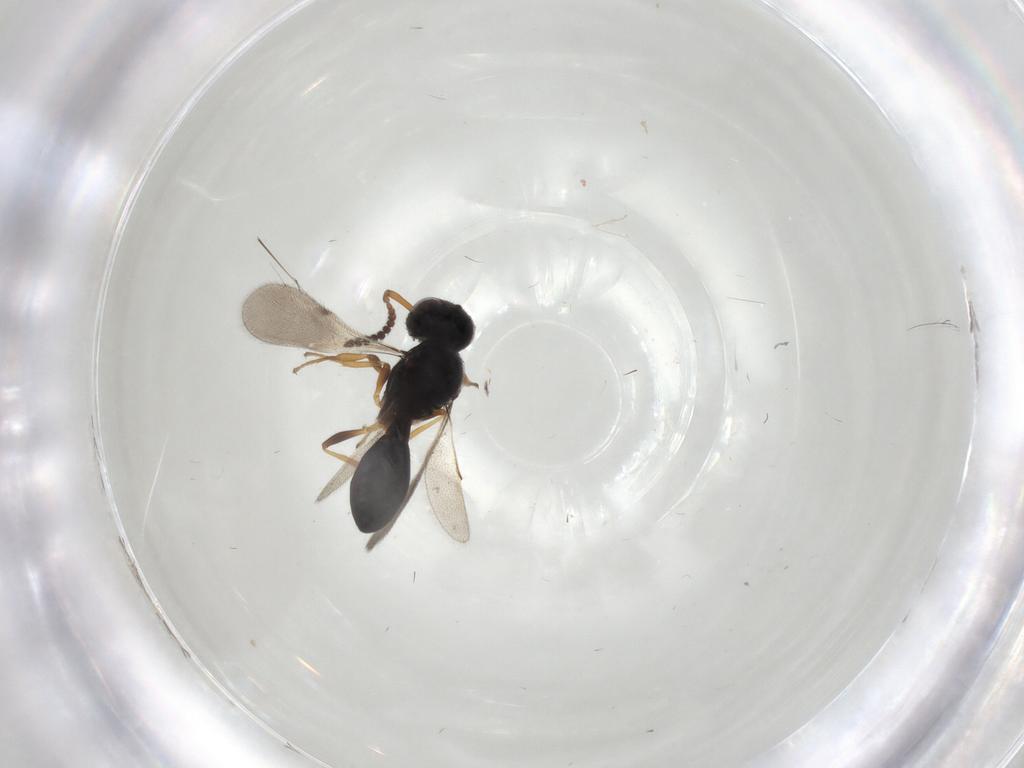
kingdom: Animalia
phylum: Arthropoda
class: Insecta
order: Hymenoptera
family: Scelionidae
